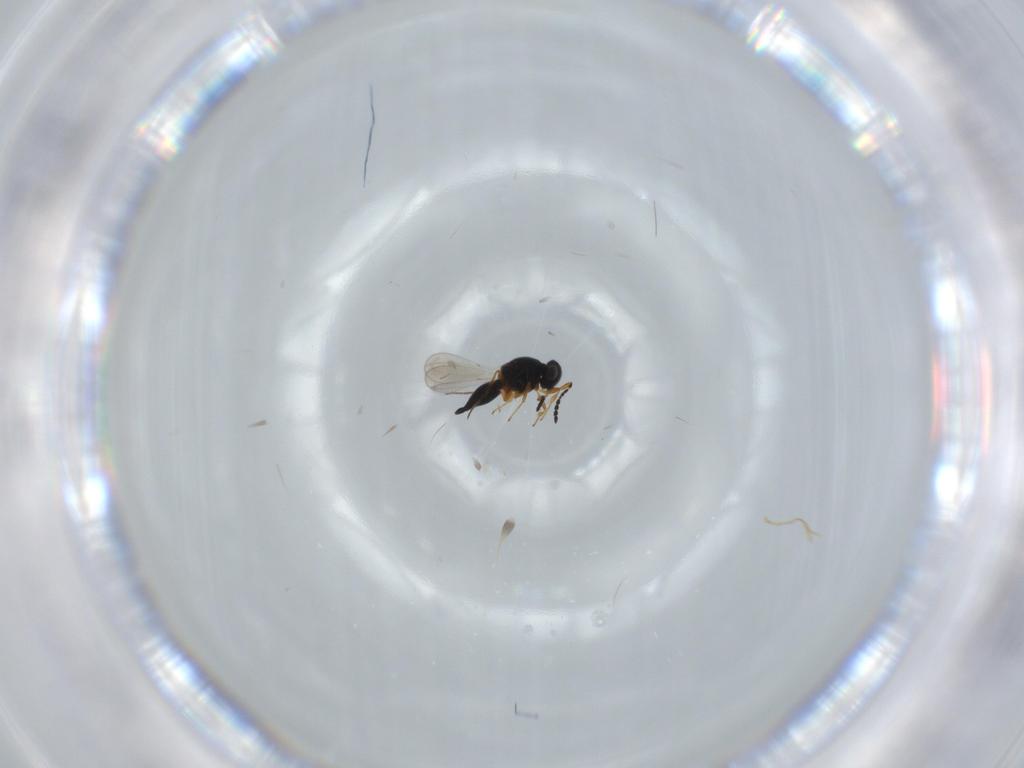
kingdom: Animalia
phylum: Arthropoda
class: Insecta
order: Hymenoptera
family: Platygastridae
